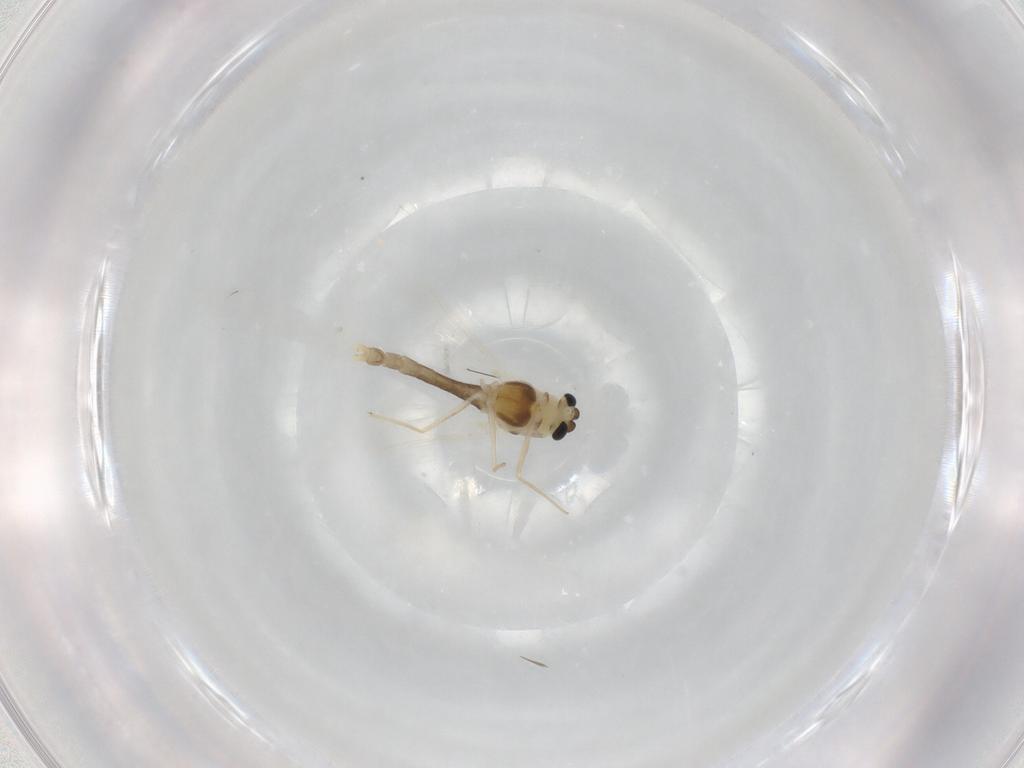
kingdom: Animalia
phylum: Arthropoda
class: Insecta
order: Diptera
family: Chironomidae
